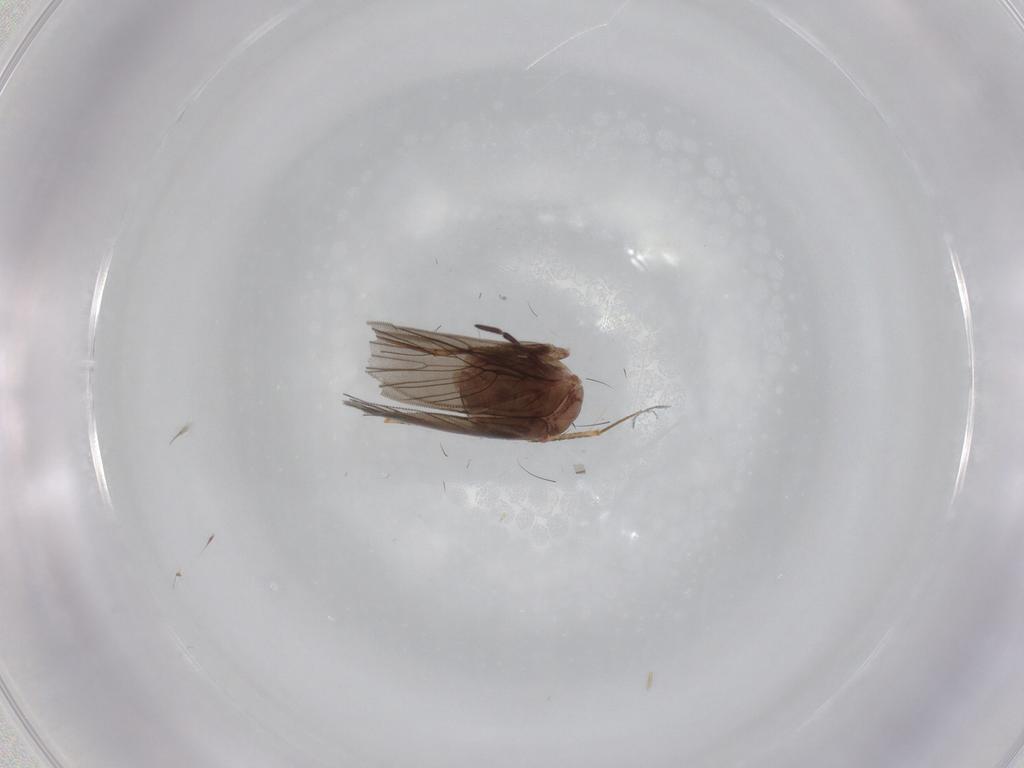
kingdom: Animalia
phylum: Arthropoda
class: Insecta
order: Psocodea
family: Lepidopsocidae
